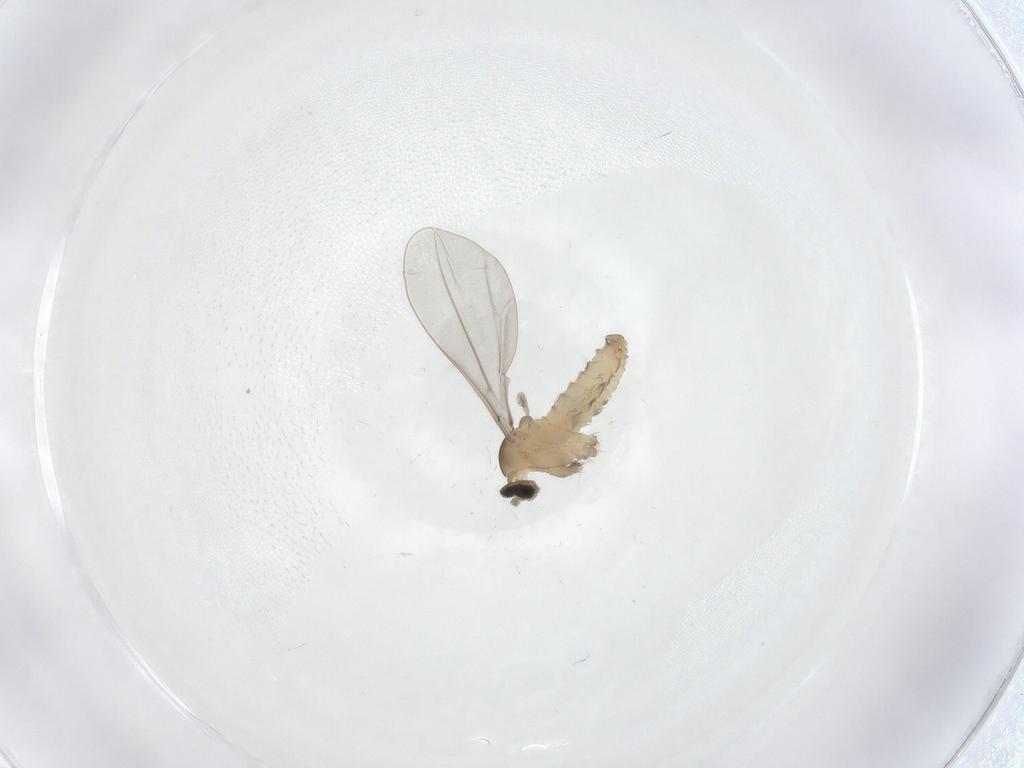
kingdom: Animalia
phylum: Arthropoda
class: Insecta
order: Diptera
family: Cecidomyiidae
